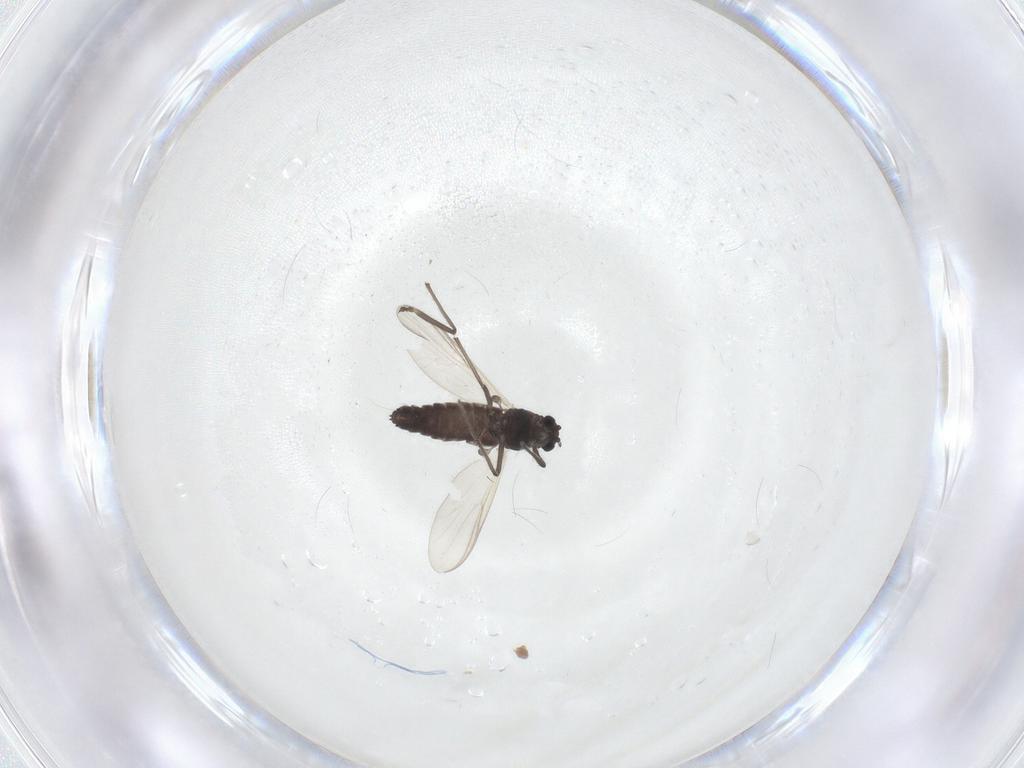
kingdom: Animalia
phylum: Arthropoda
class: Insecta
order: Diptera
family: Chironomidae
